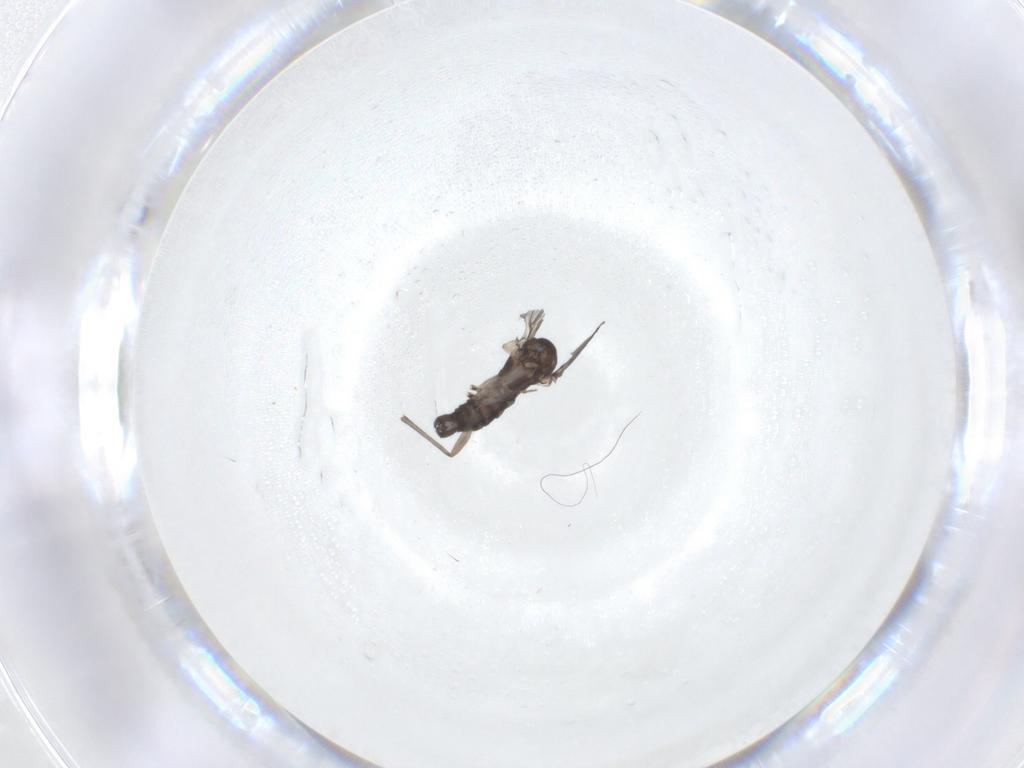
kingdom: Animalia
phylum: Arthropoda
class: Insecta
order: Diptera
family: Sciaridae
